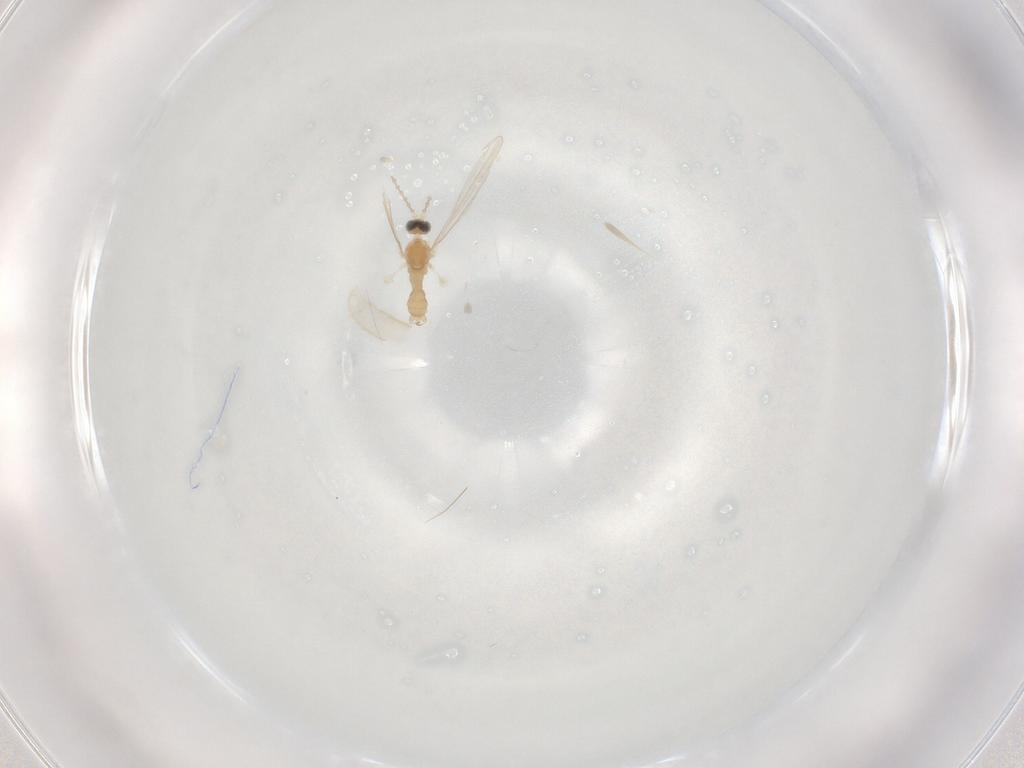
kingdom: Animalia
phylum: Arthropoda
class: Insecta
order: Diptera
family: Cecidomyiidae
